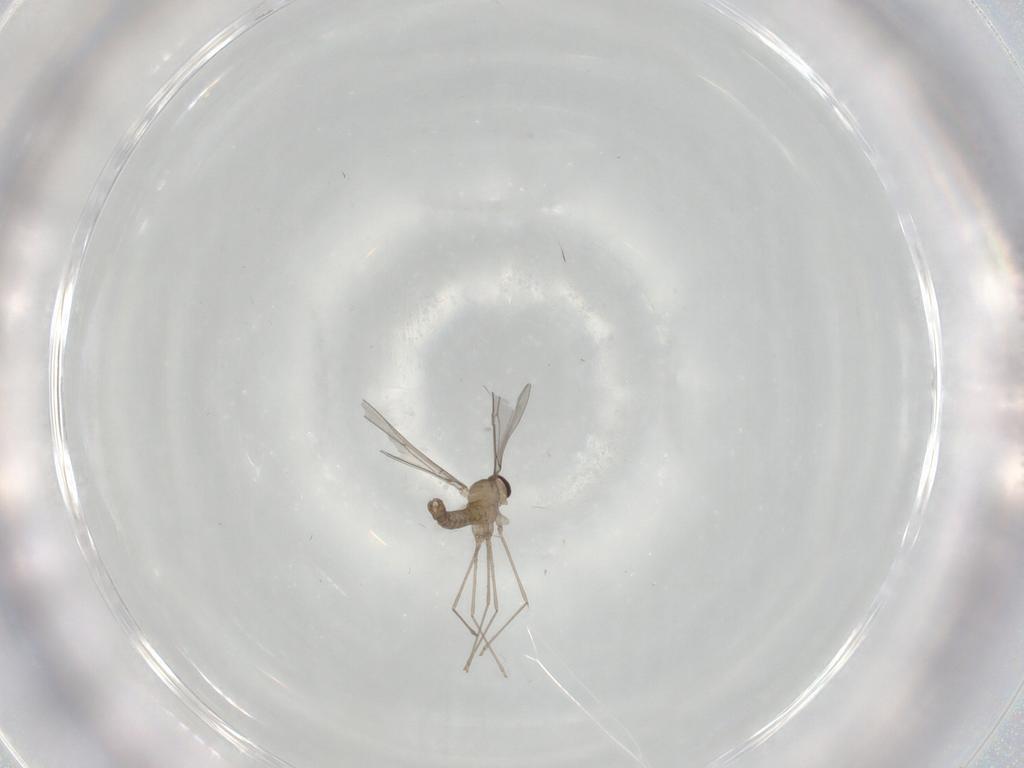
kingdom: Animalia
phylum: Arthropoda
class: Insecta
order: Diptera
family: Cecidomyiidae
